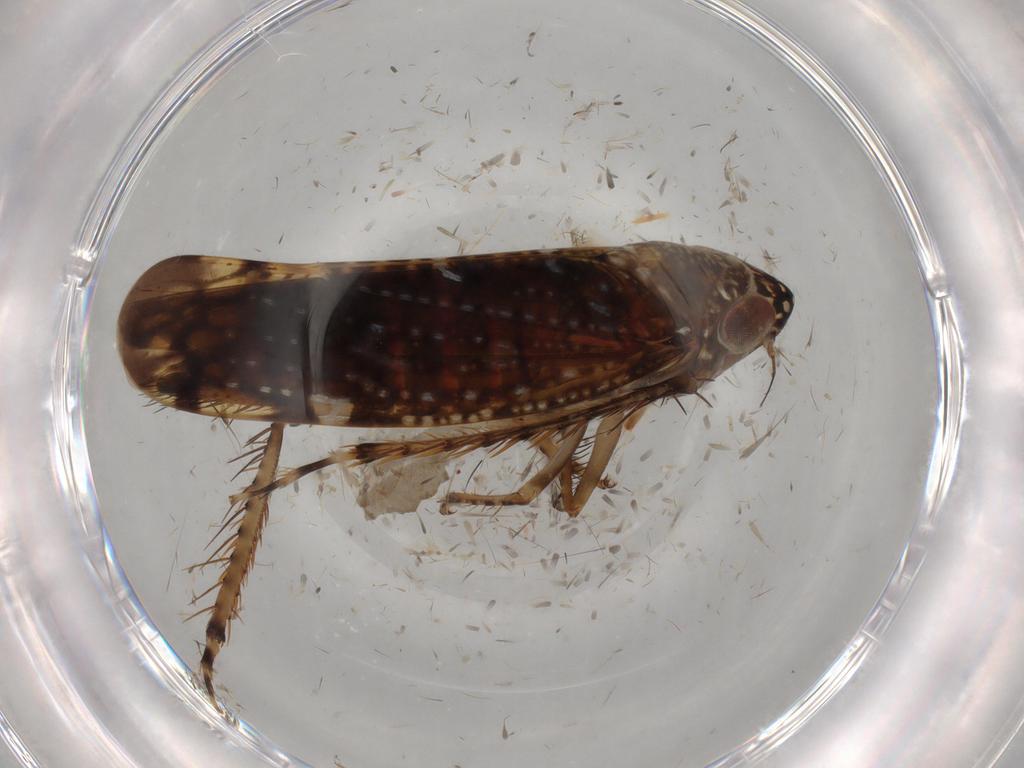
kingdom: Animalia
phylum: Arthropoda
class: Insecta
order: Hemiptera
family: Cicadellidae
